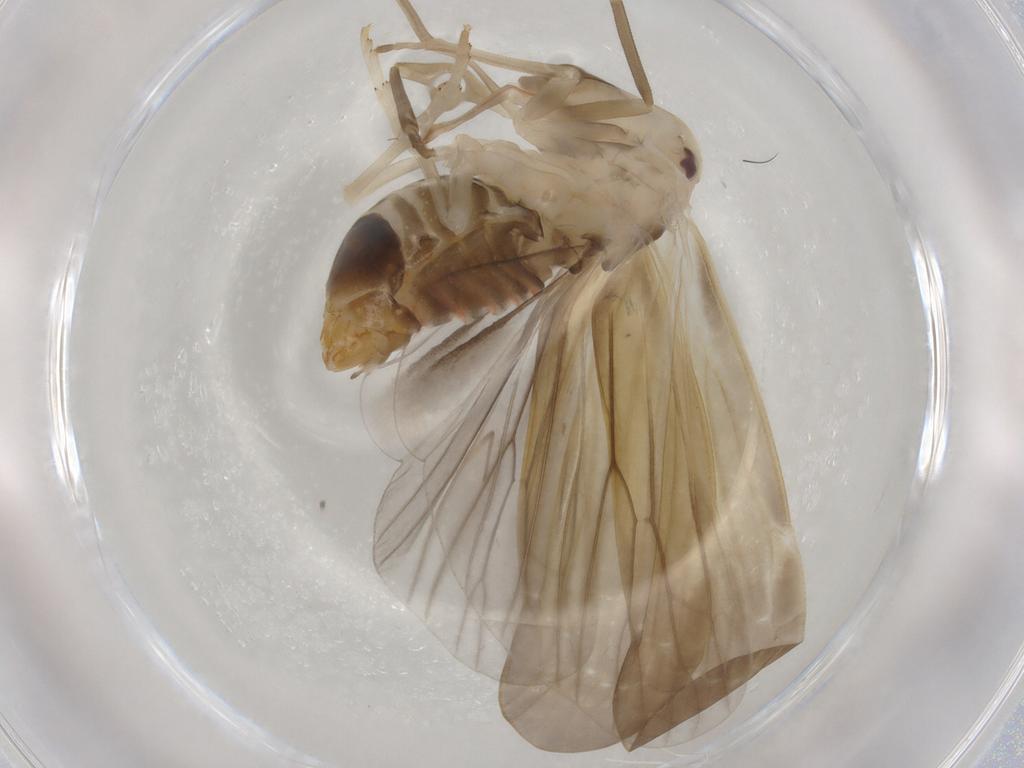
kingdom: Animalia
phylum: Arthropoda
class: Insecta
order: Hemiptera
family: Derbidae
